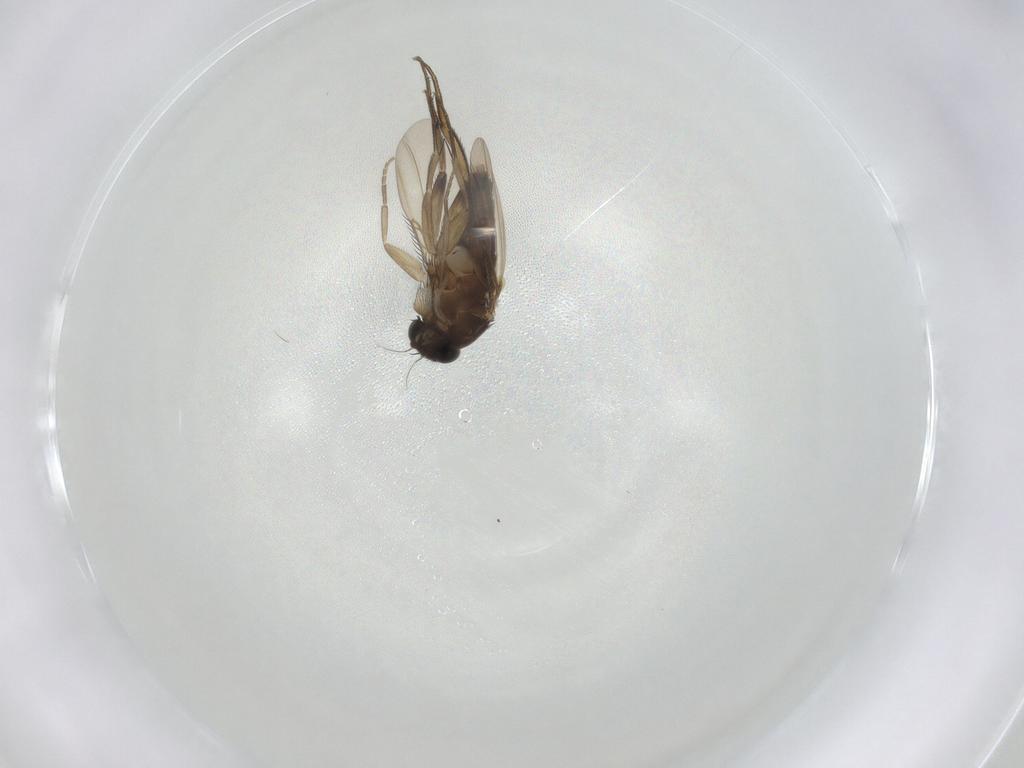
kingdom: Animalia
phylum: Arthropoda
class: Insecta
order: Diptera
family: Phoridae
